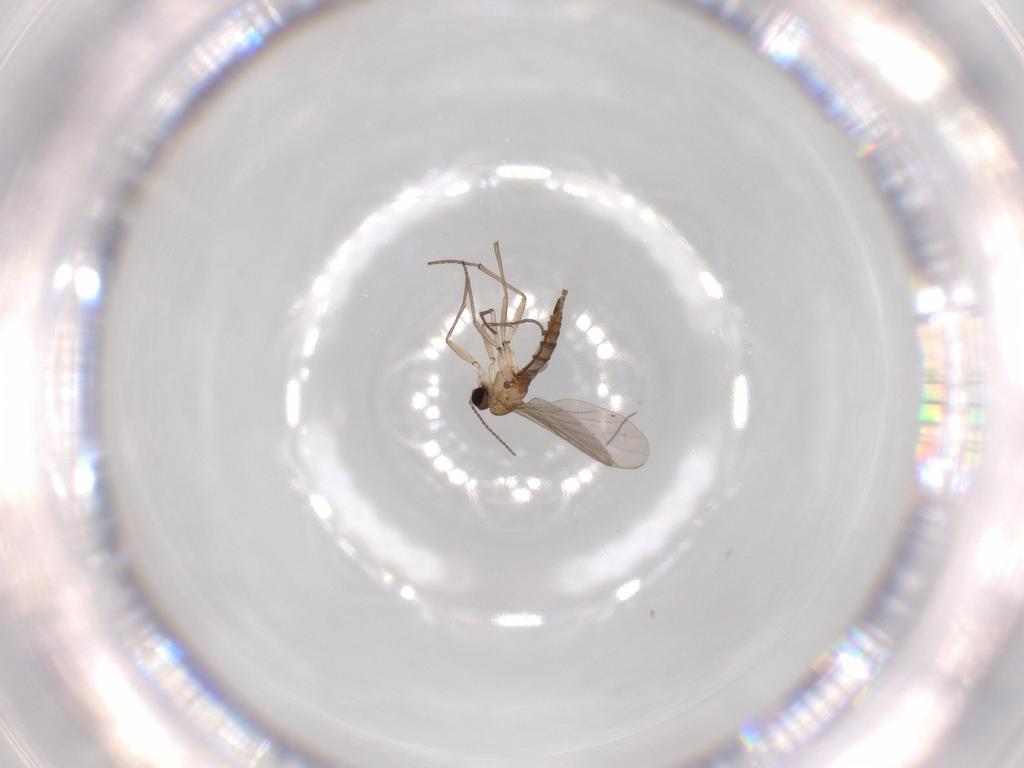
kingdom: Animalia
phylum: Arthropoda
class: Insecta
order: Diptera
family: Sciaridae
